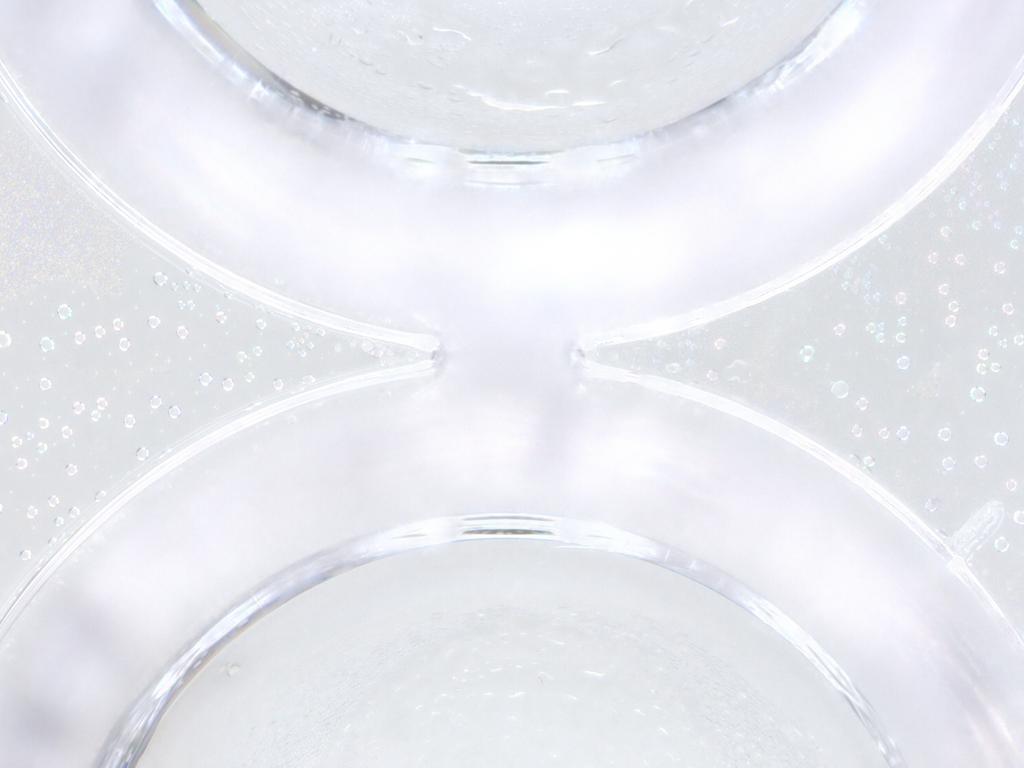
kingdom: Animalia
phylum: Arthropoda
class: Insecta
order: Diptera
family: Ceratopogonidae
